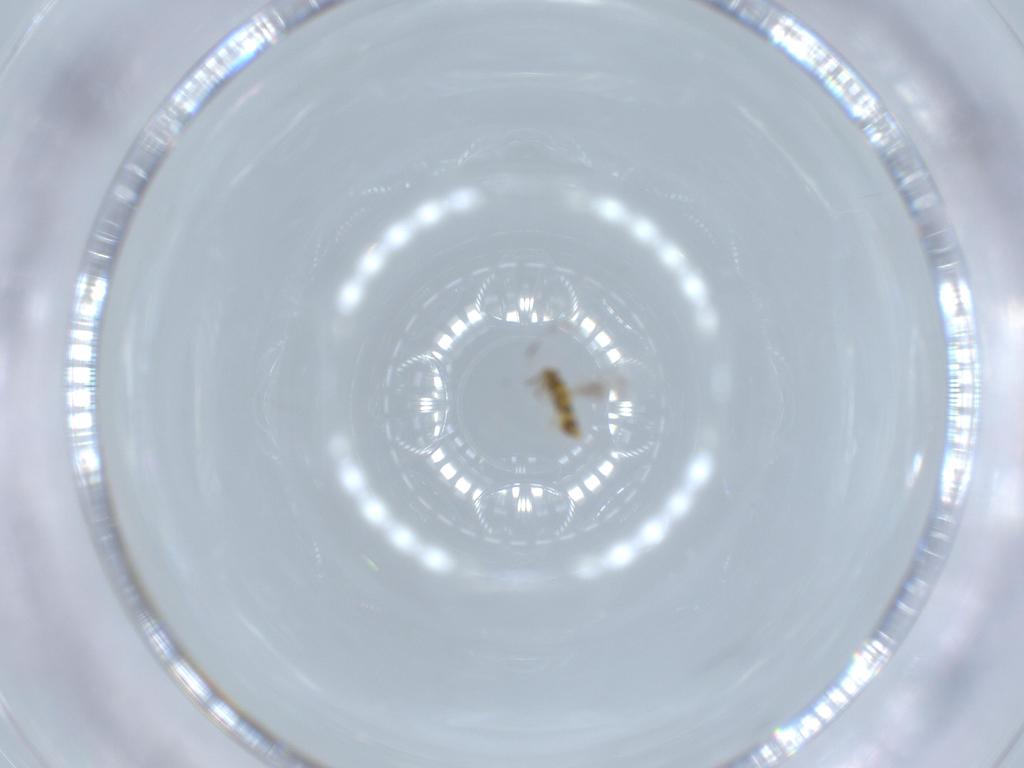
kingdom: Animalia
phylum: Arthropoda
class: Insecta
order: Hymenoptera
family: Aphelinidae
